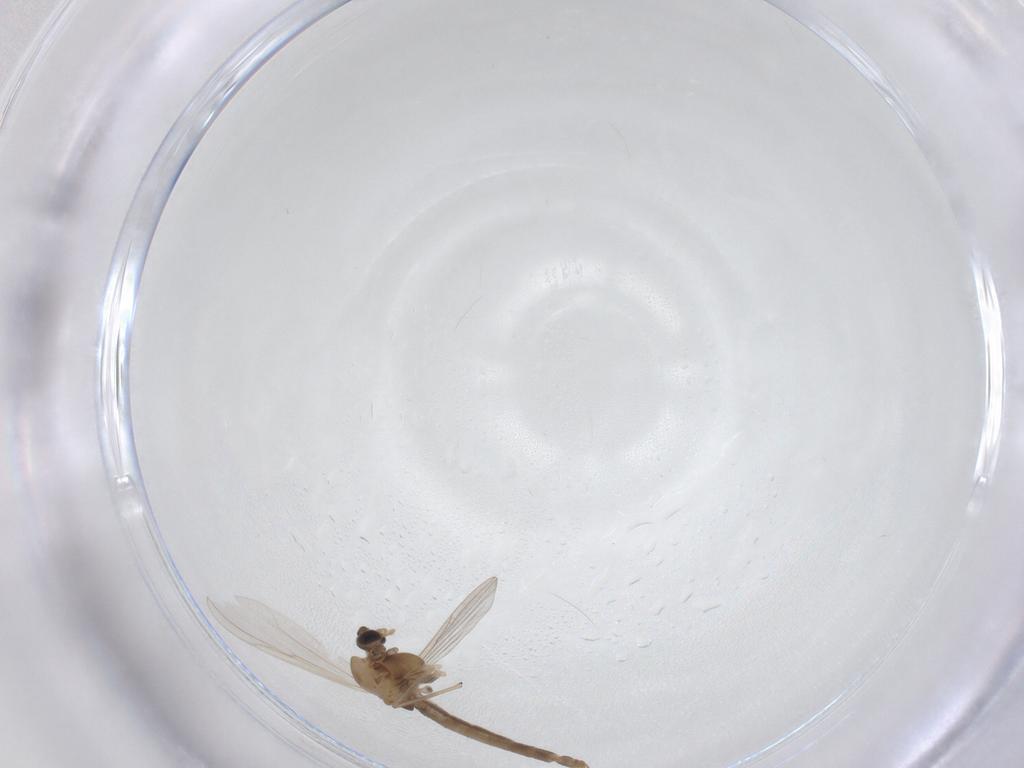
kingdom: Animalia
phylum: Arthropoda
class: Insecta
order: Diptera
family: Chironomidae
